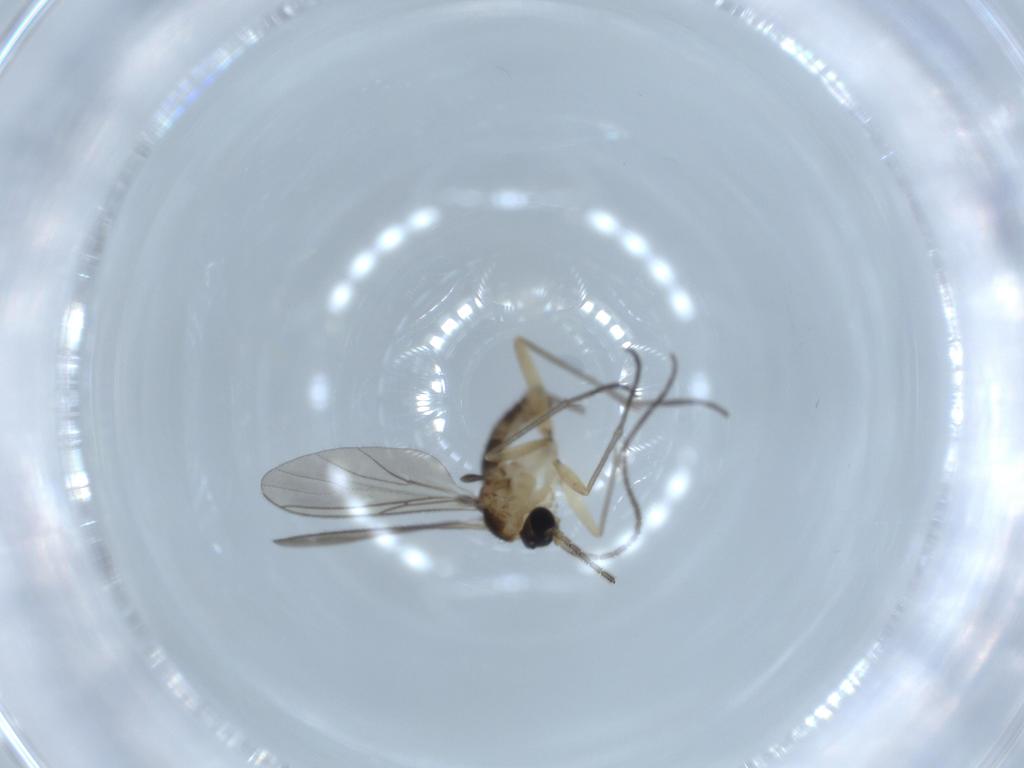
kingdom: Animalia
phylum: Arthropoda
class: Insecta
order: Diptera
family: Sciaridae
